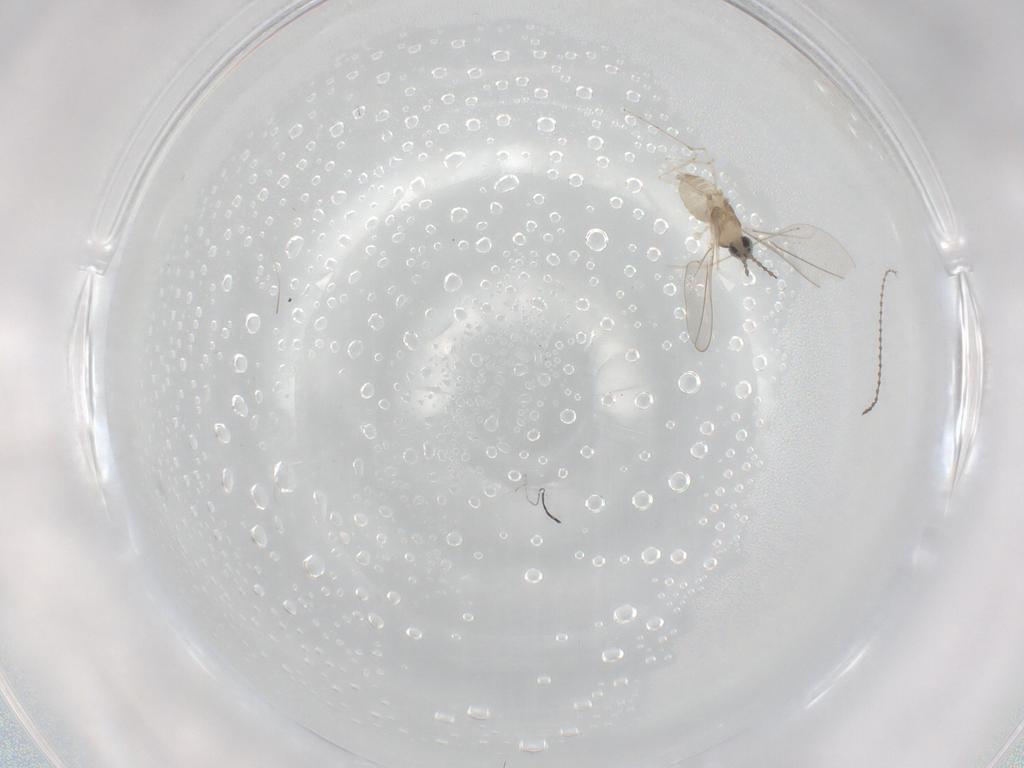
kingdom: Animalia
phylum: Arthropoda
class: Insecta
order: Diptera
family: Cecidomyiidae
